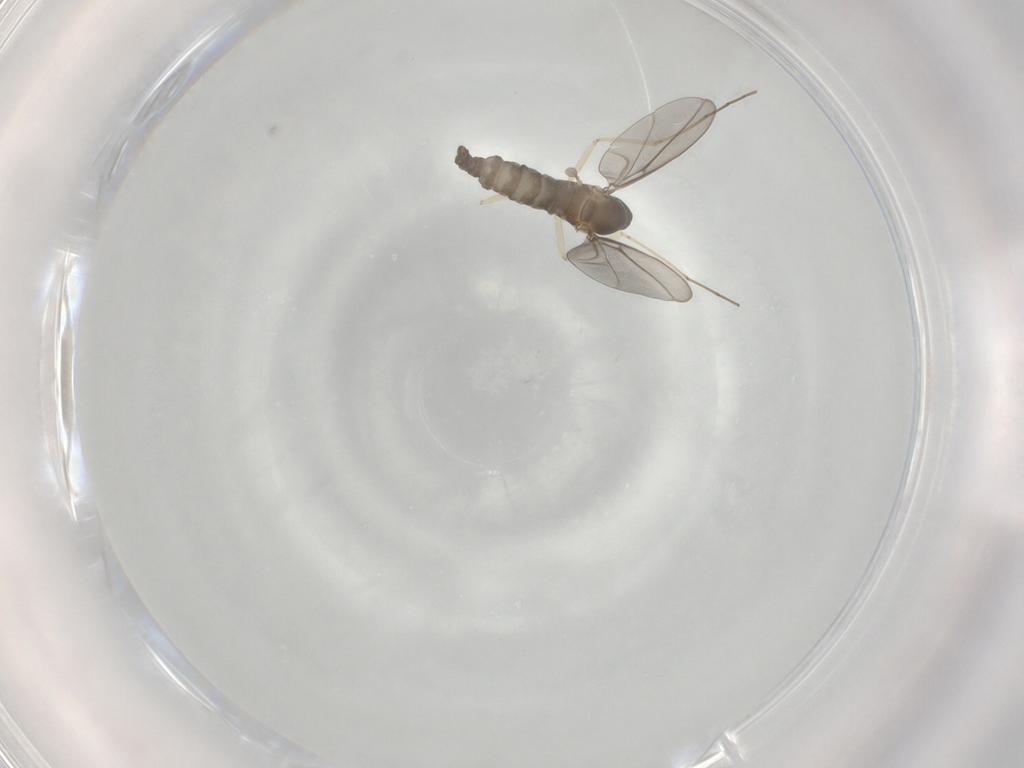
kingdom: Animalia
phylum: Arthropoda
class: Insecta
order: Diptera
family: Cecidomyiidae
